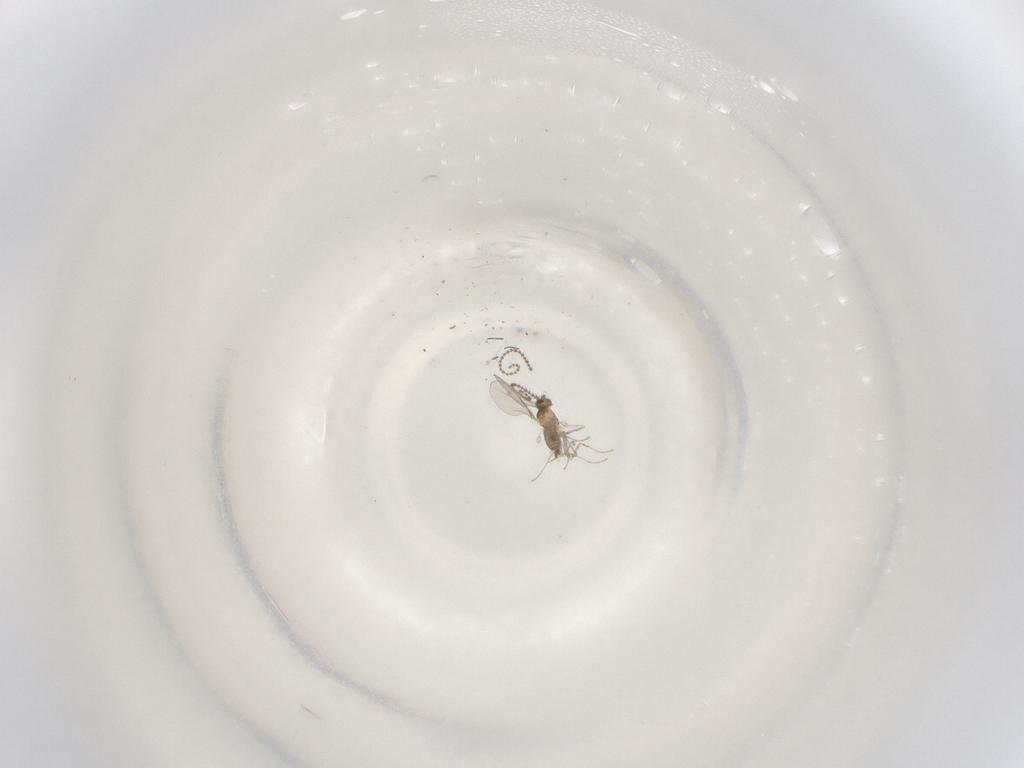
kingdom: Animalia
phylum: Arthropoda
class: Insecta
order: Diptera
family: Cecidomyiidae
